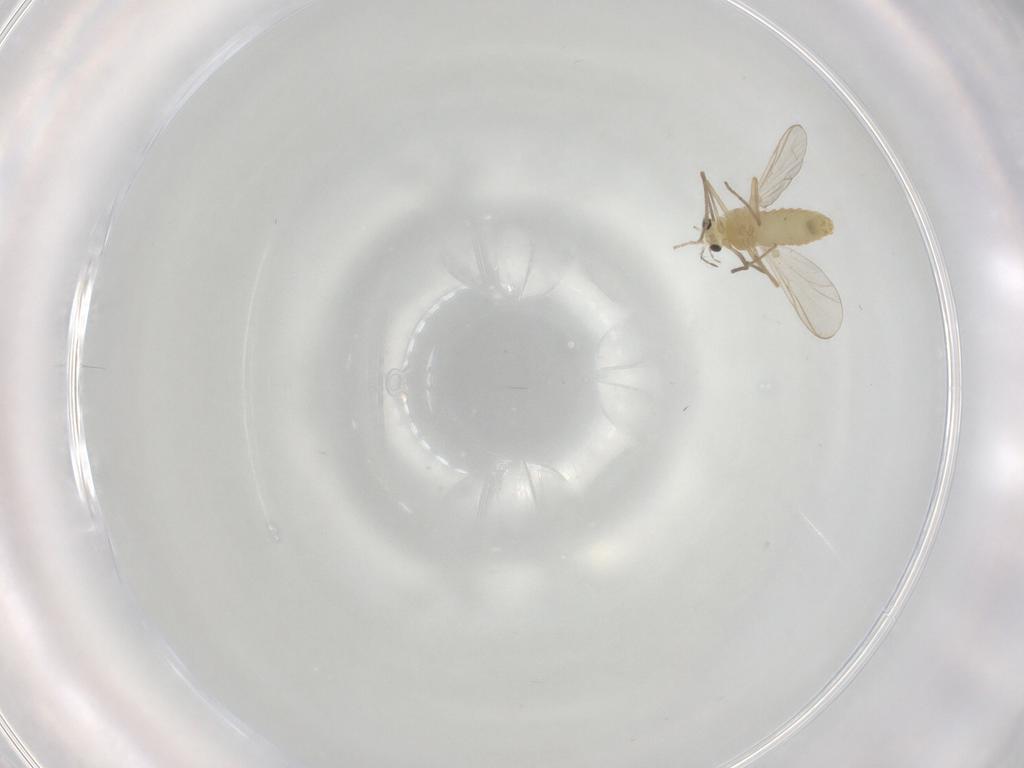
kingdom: Animalia
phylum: Arthropoda
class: Insecta
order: Diptera
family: Chironomidae
